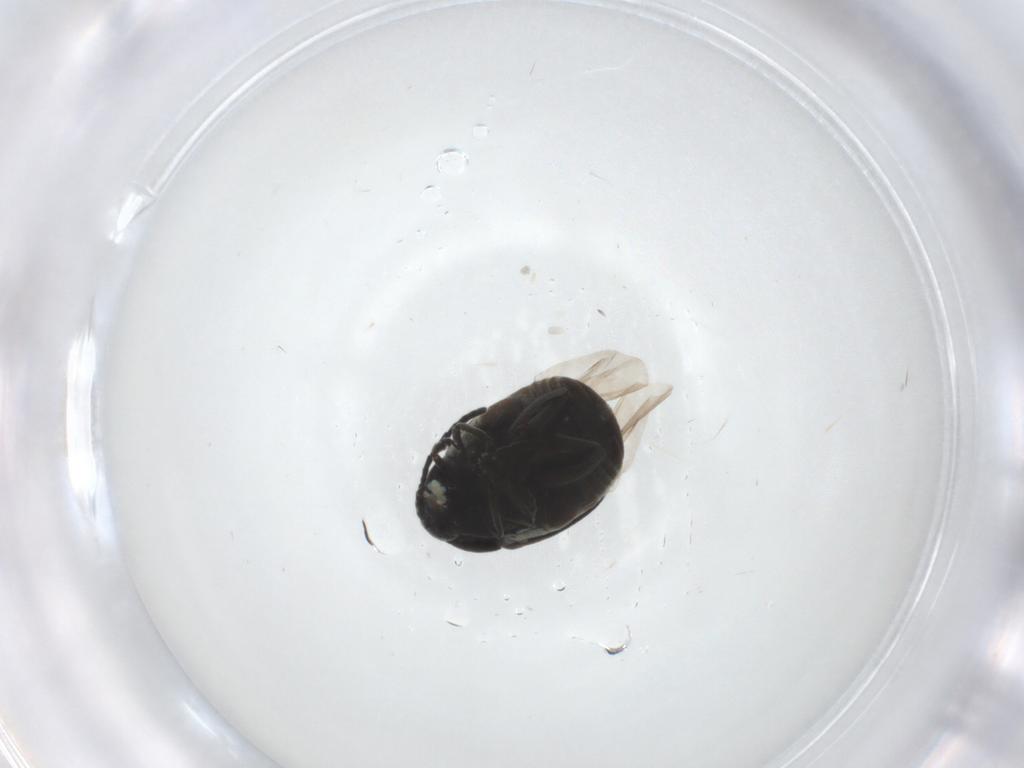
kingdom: Animalia
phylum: Arthropoda
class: Insecta
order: Coleoptera
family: Chrysomelidae
